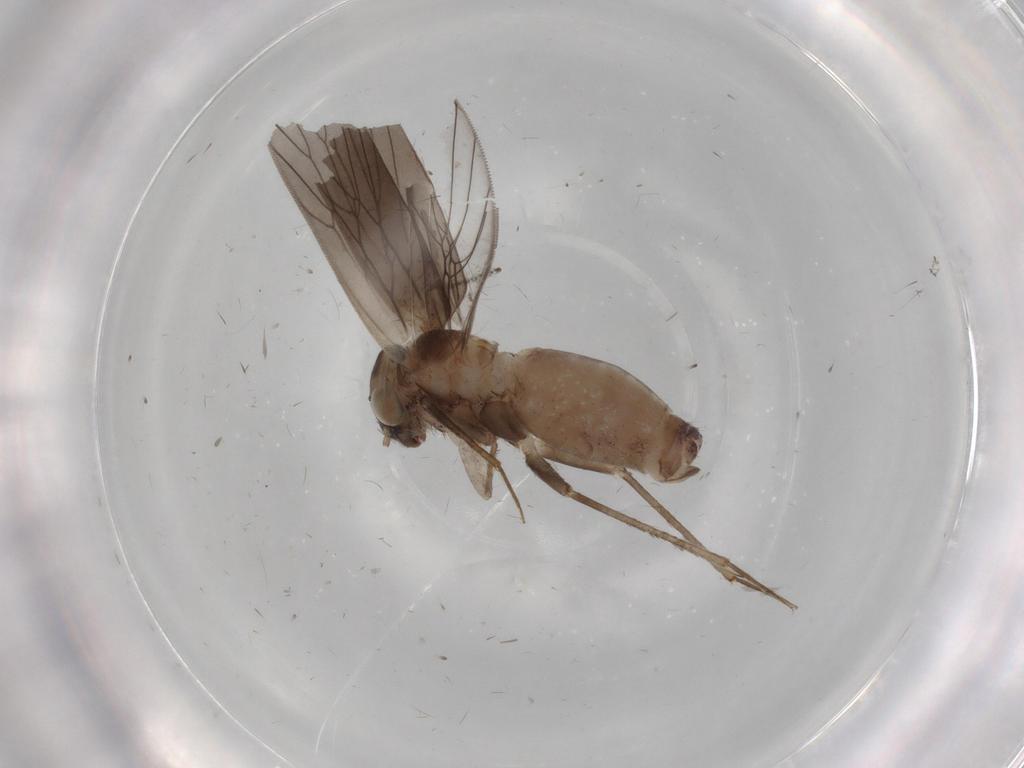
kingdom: Animalia
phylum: Arthropoda
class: Insecta
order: Psocodea
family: Lepidopsocidae
